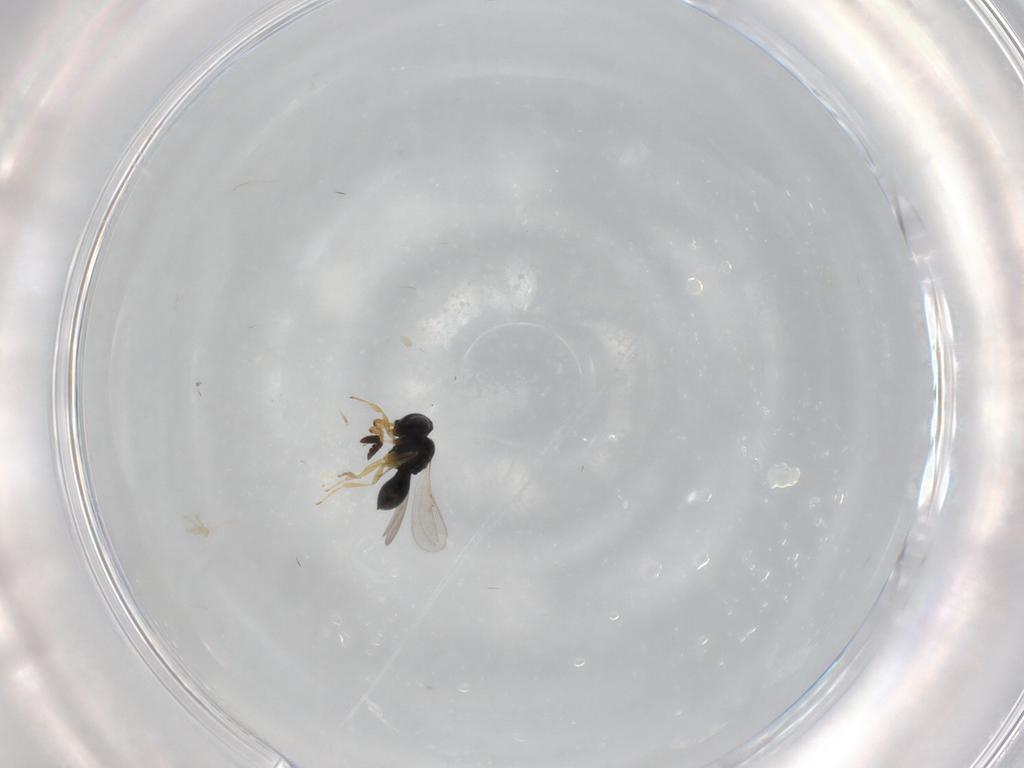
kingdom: Animalia
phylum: Arthropoda
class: Insecta
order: Hymenoptera
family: Scelionidae
